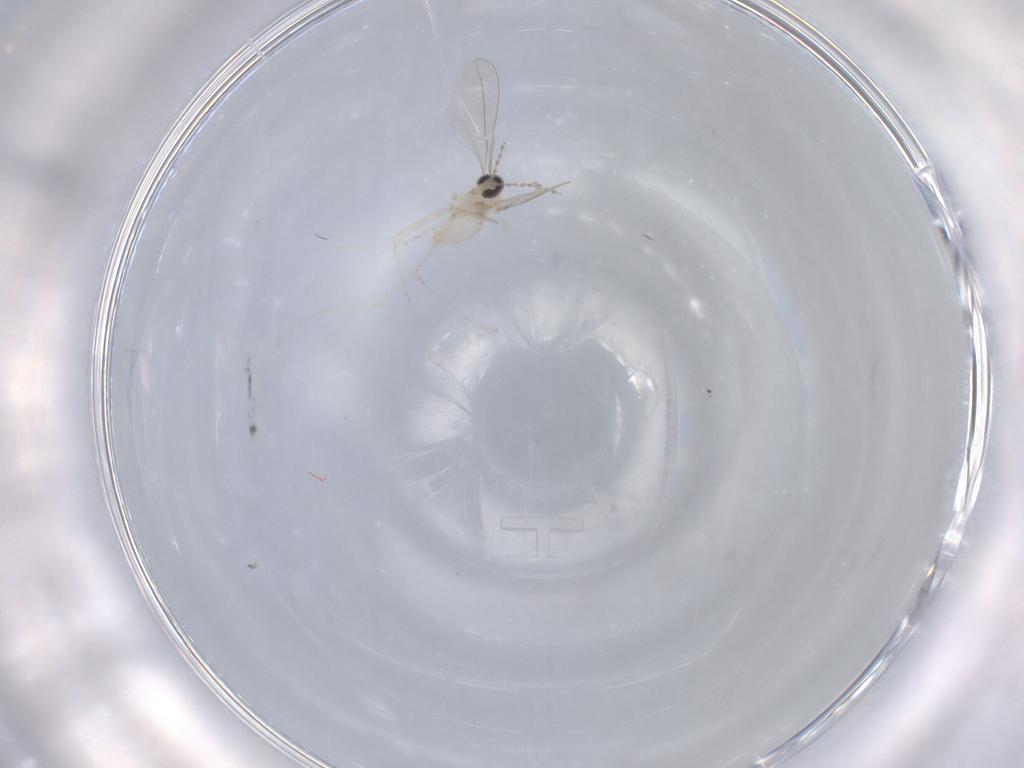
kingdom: Animalia
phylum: Arthropoda
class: Insecta
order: Diptera
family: Cecidomyiidae
